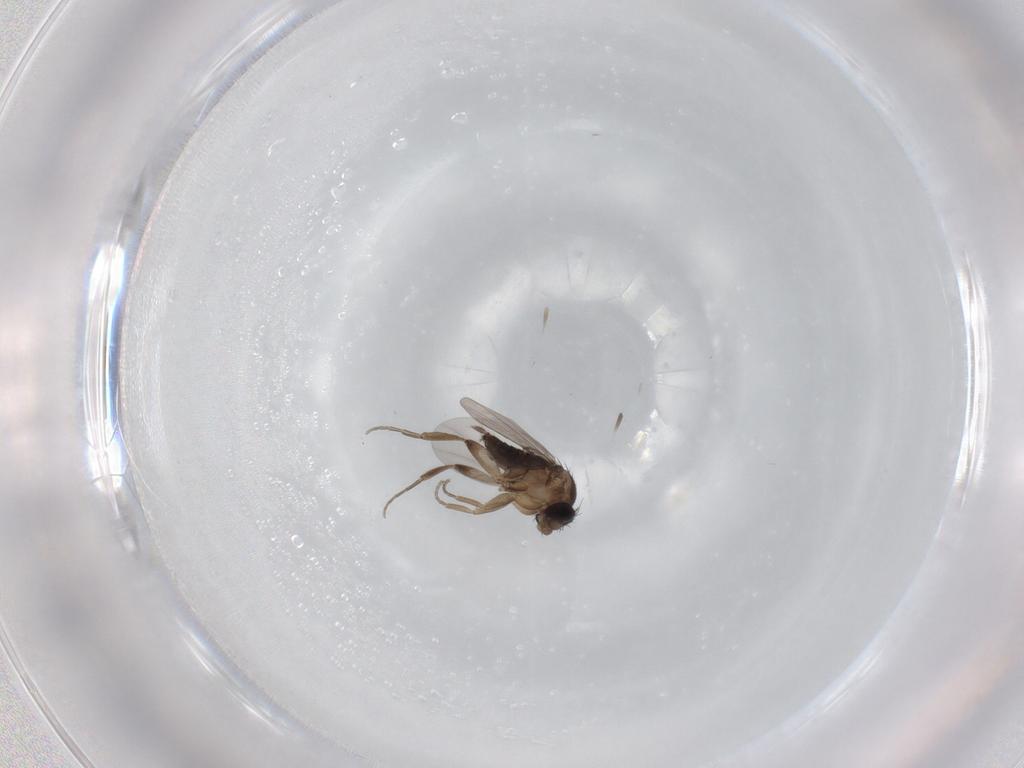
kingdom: Animalia
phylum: Arthropoda
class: Insecta
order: Diptera
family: Phoridae
